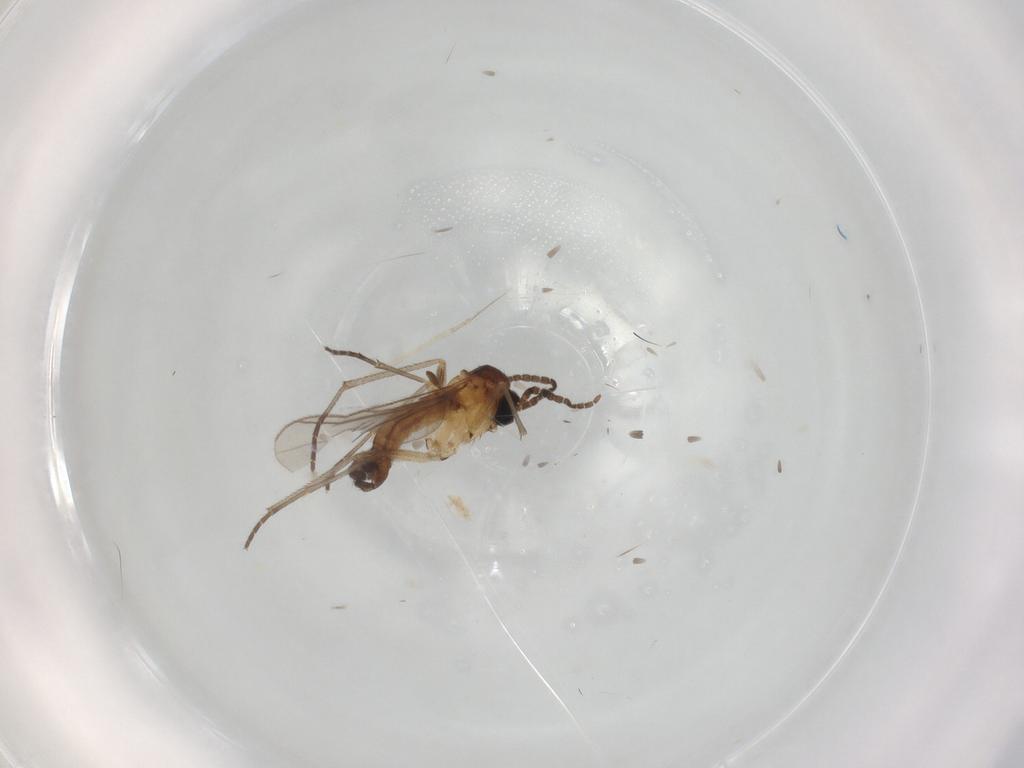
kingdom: Animalia
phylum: Arthropoda
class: Insecta
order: Diptera
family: Sciaridae
